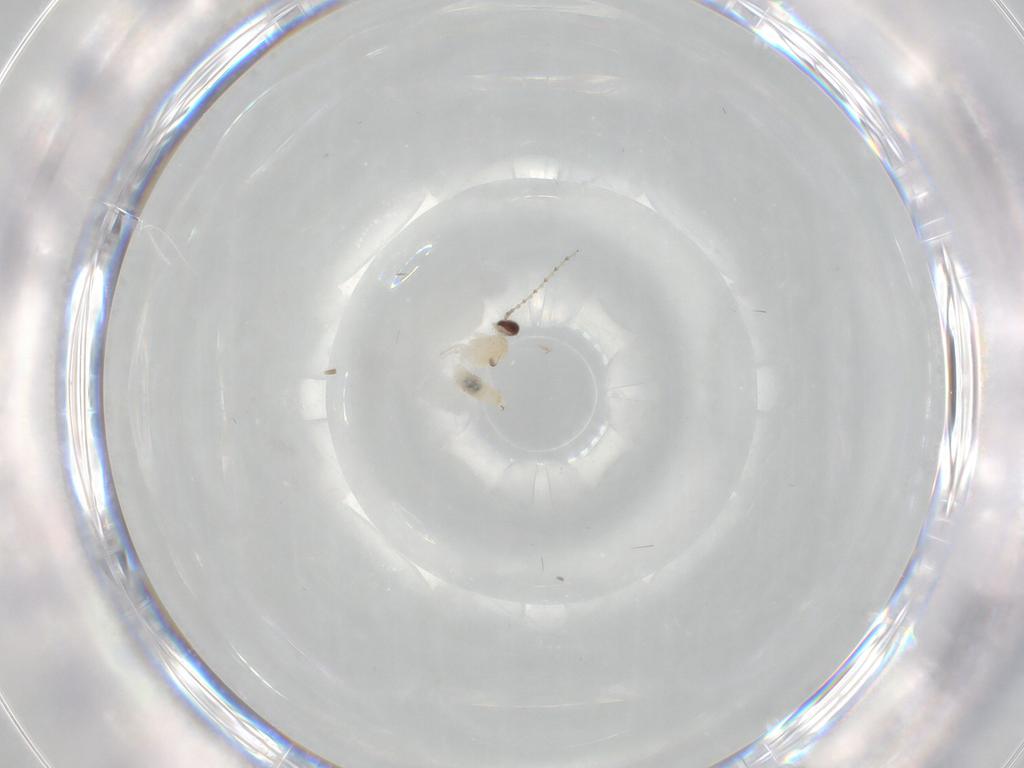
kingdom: Animalia
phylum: Arthropoda
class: Insecta
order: Diptera
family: Cecidomyiidae
